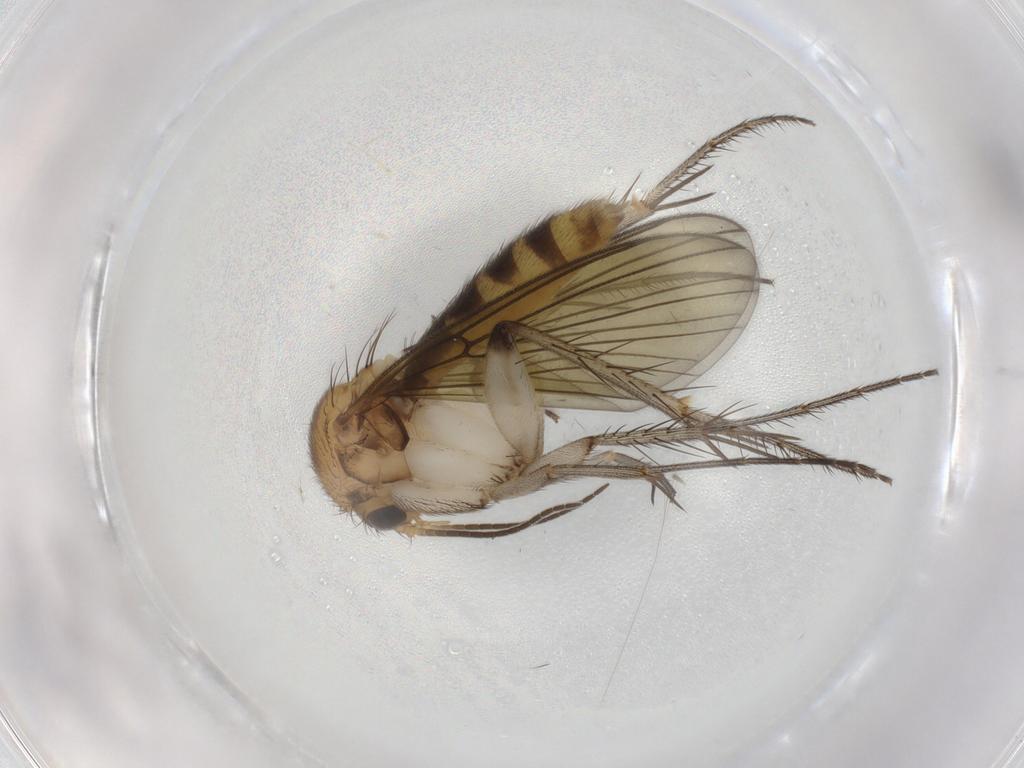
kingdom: Animalia
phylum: Arthropoda
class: Insecta
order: Diptera
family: Mycetophilidae
